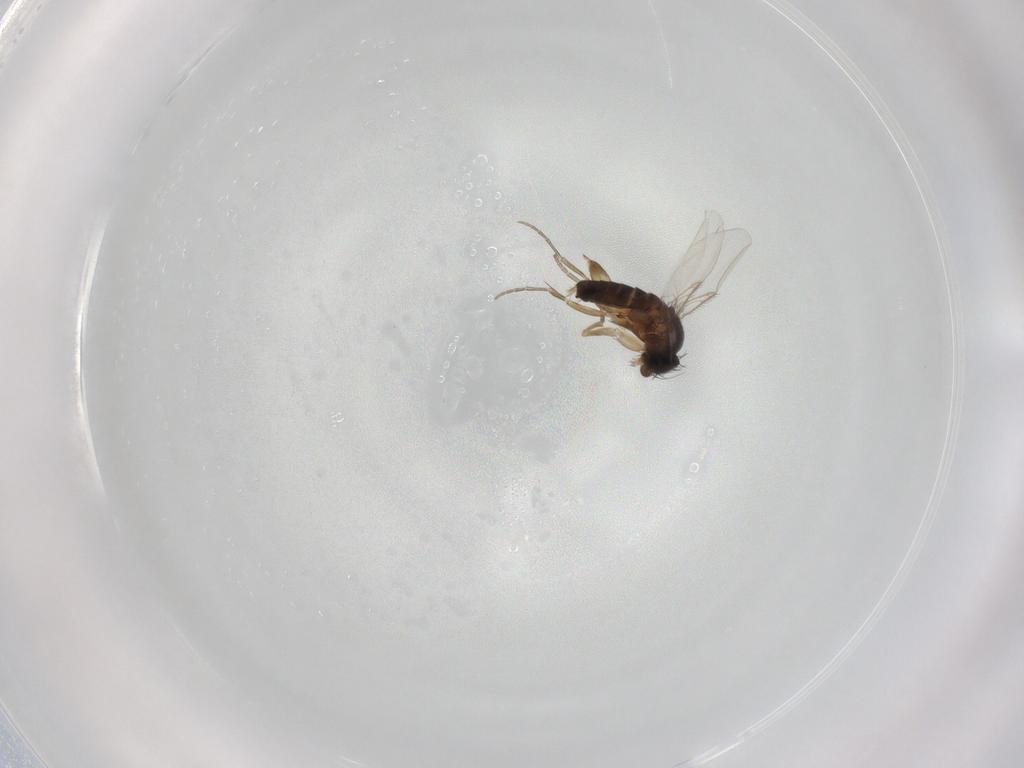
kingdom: Animalia
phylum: Arthropoda
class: Insecta
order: Diptera
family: Phoridae
